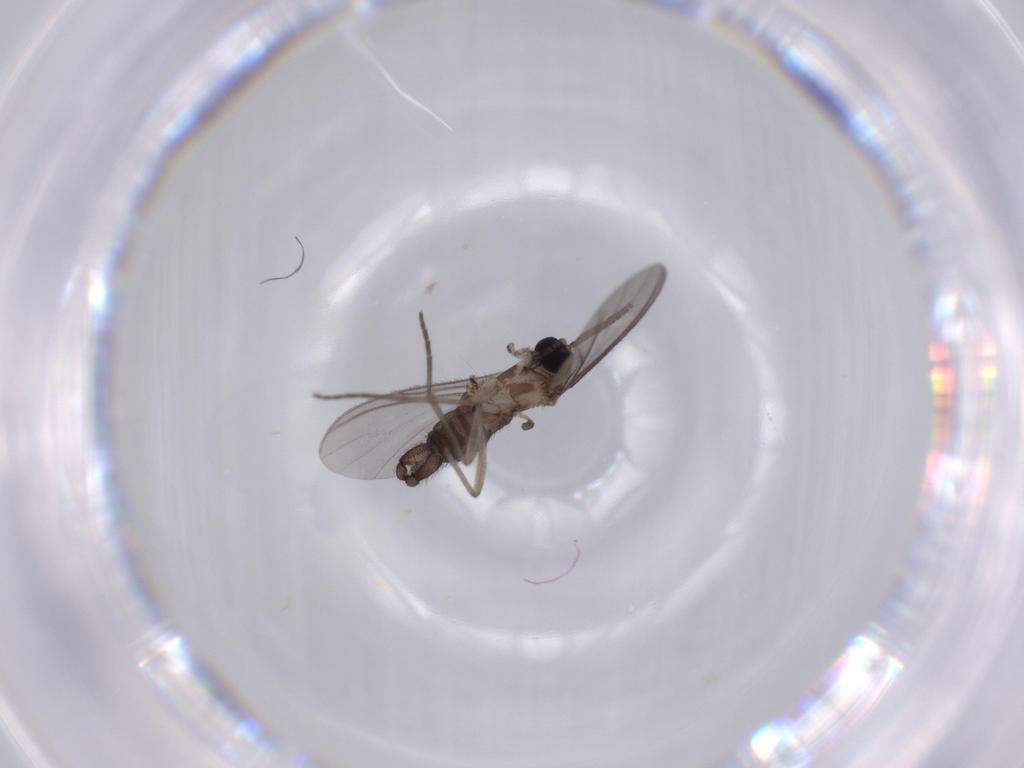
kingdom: Animalia
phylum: Arthropoda
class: Insecta
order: Diptera
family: Sciaridae
